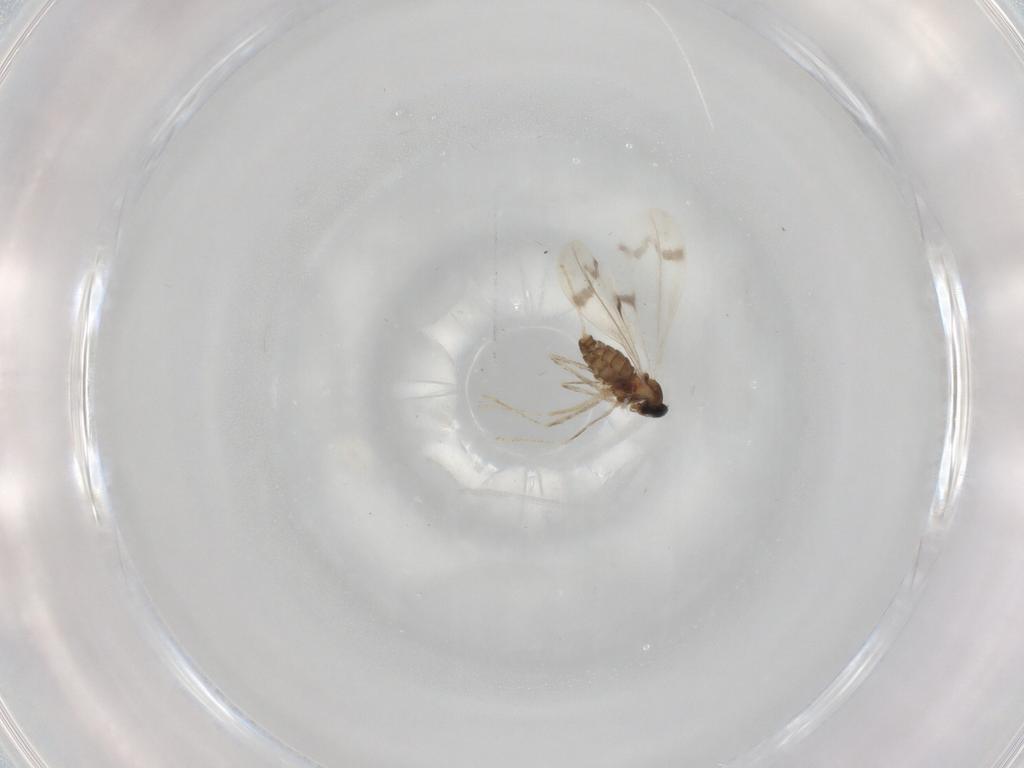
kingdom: Animalia
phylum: Arthropoda
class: Insecta
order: Diptera
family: Cecidomyiidae
